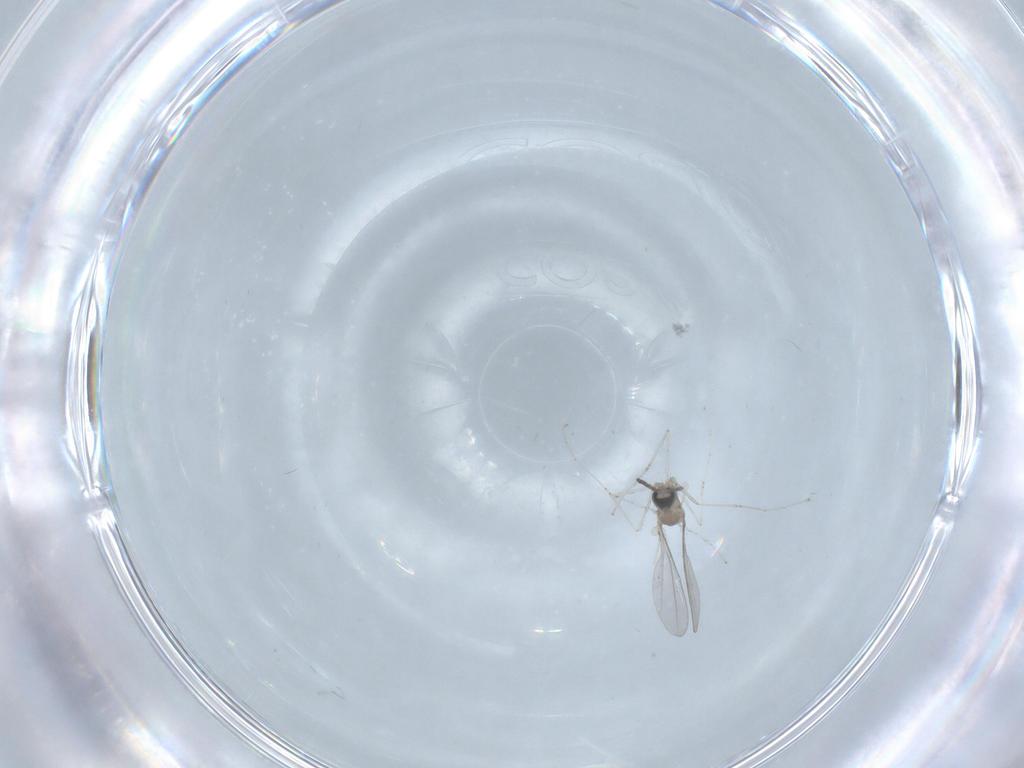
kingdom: Animalia
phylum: Arthropoda
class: Insecta
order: Diptera
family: Cecidomyiidae
